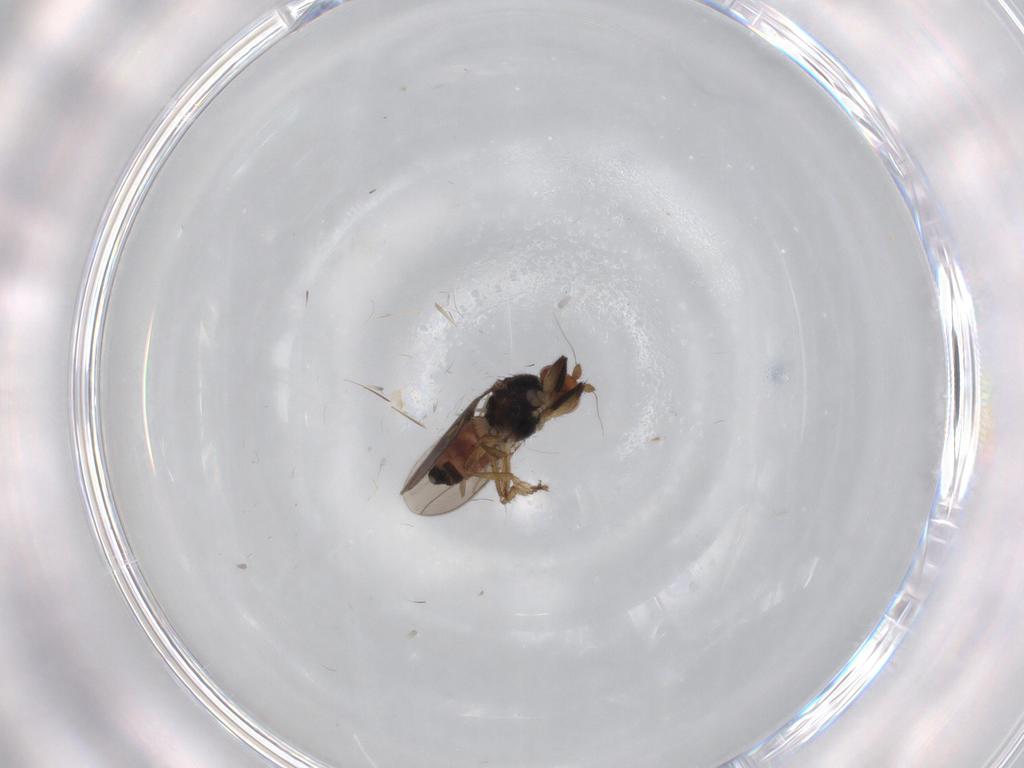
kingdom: Animalia
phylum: Arthropoda
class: Insecta
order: Diptera
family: Sphaeroceridae
